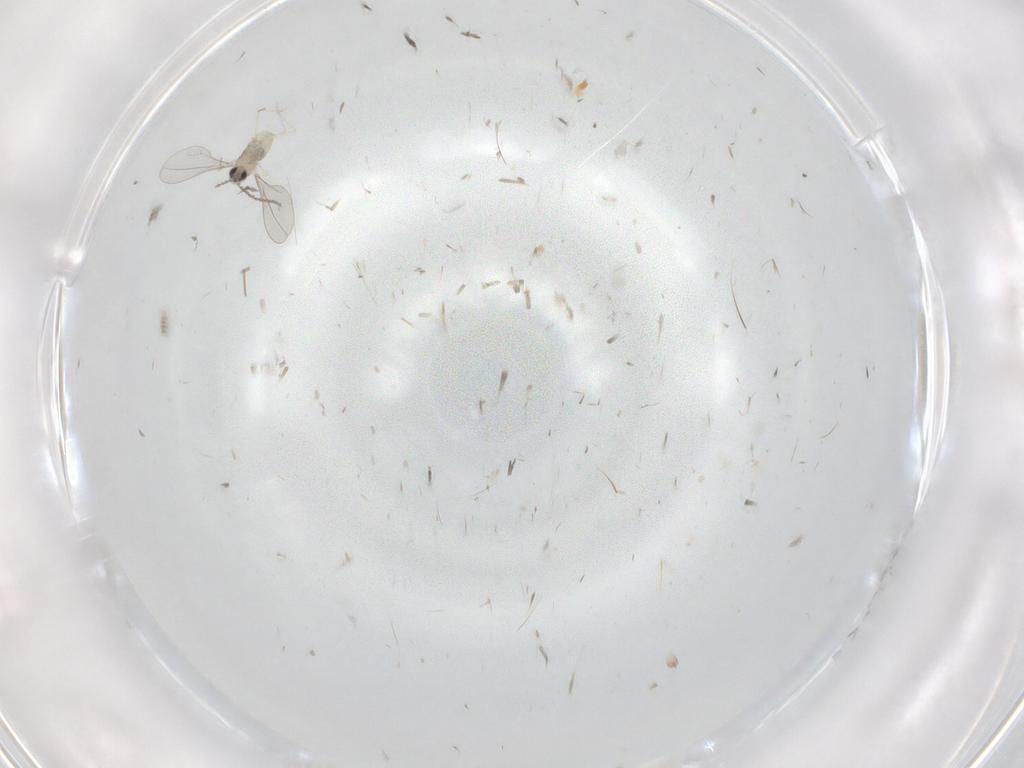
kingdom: Animalia
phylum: Arthropoda
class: Insecta
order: Diptera
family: Cecidomyiidae
